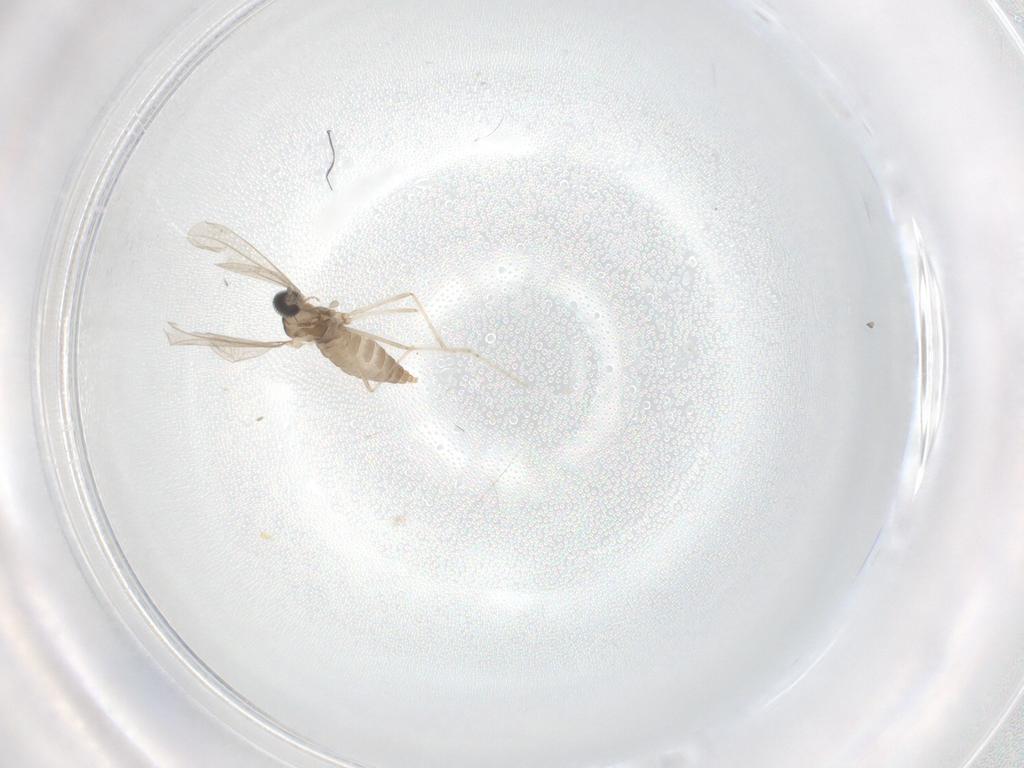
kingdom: Animalia
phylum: Arthropoda
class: Insecta
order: Diptera
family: Cecidomyiidae
